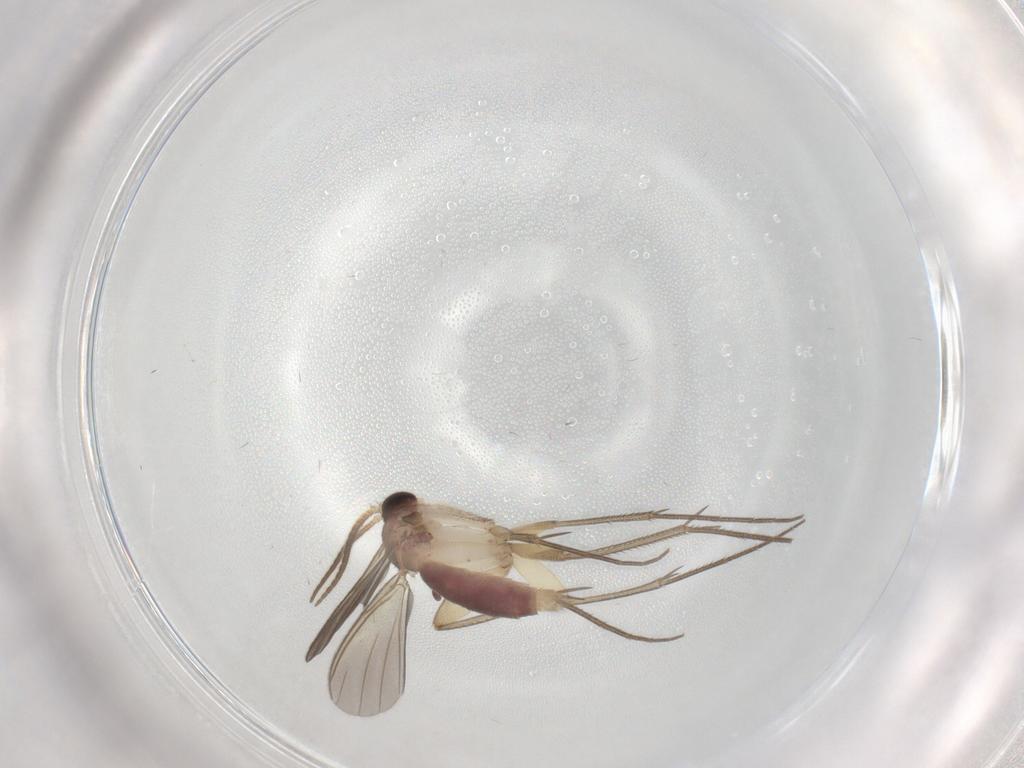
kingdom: Animalia
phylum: Arthropoda
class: Insecta
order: Diptera
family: Mycetophilidae
